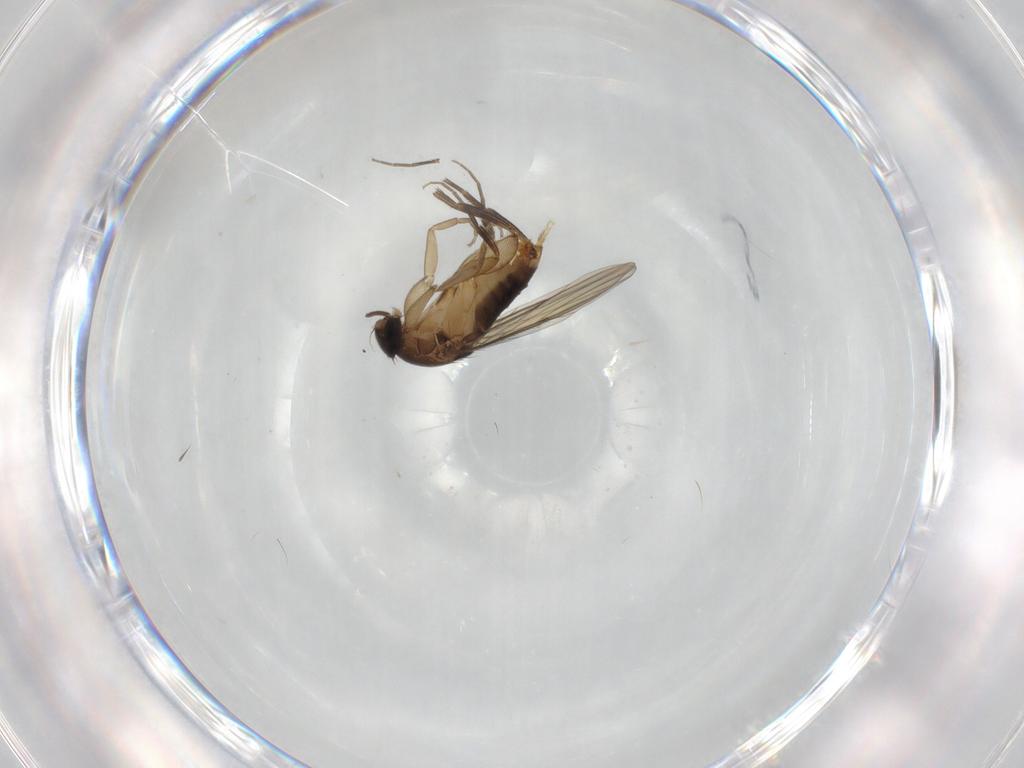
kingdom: Animalia
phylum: Arthropoda
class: Insecta
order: Diptera
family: Phoridae
